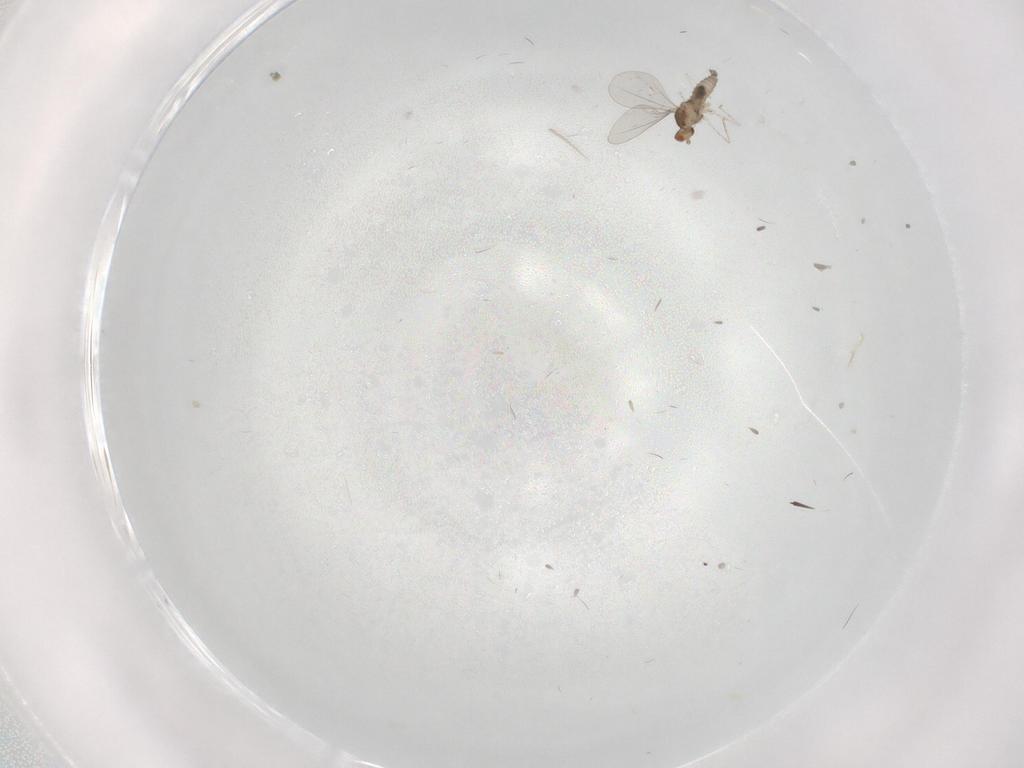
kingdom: Animalia
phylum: Arthropoda
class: Insecta
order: Diptera
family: Cecidomyiidae
